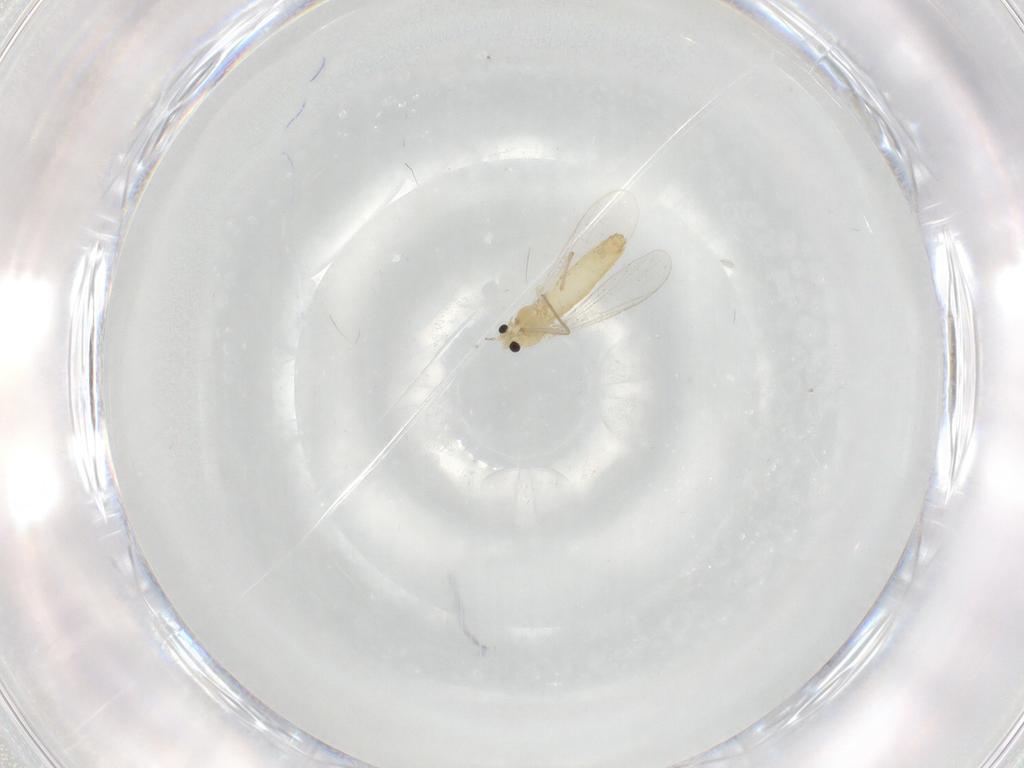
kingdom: Animalia
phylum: Arthropoda
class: Insecta
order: Diptera
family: Chironomidae
